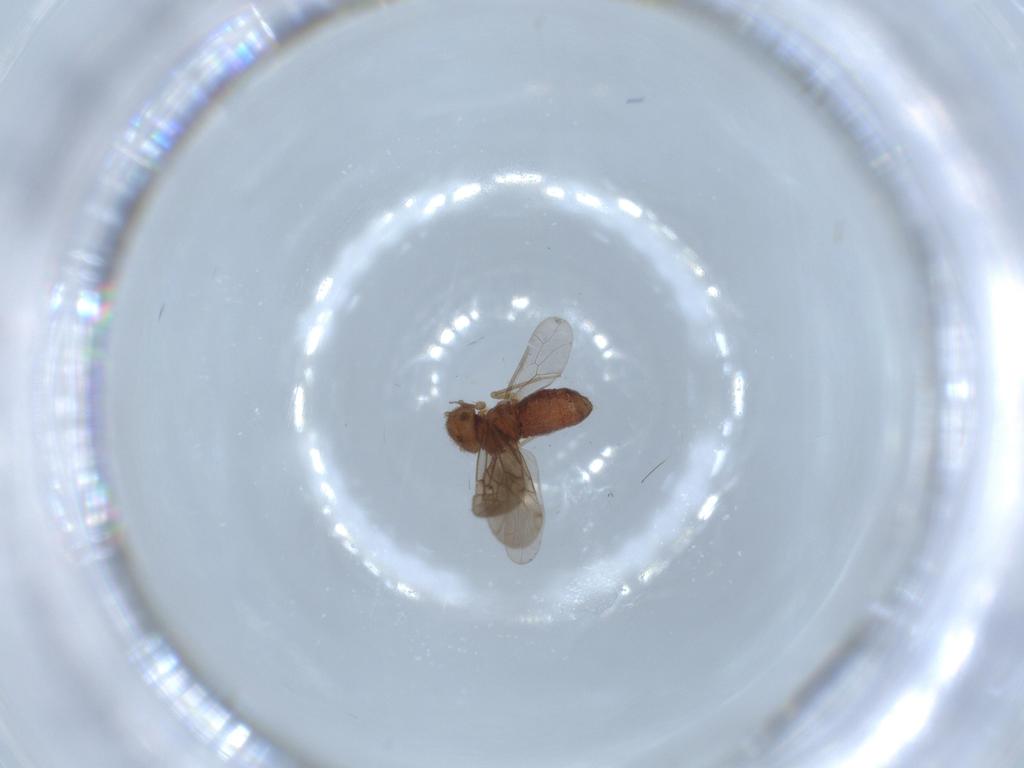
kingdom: Animalia
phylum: Arthropoda
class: Insecta
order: Psocodea
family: Ectopsocidae
